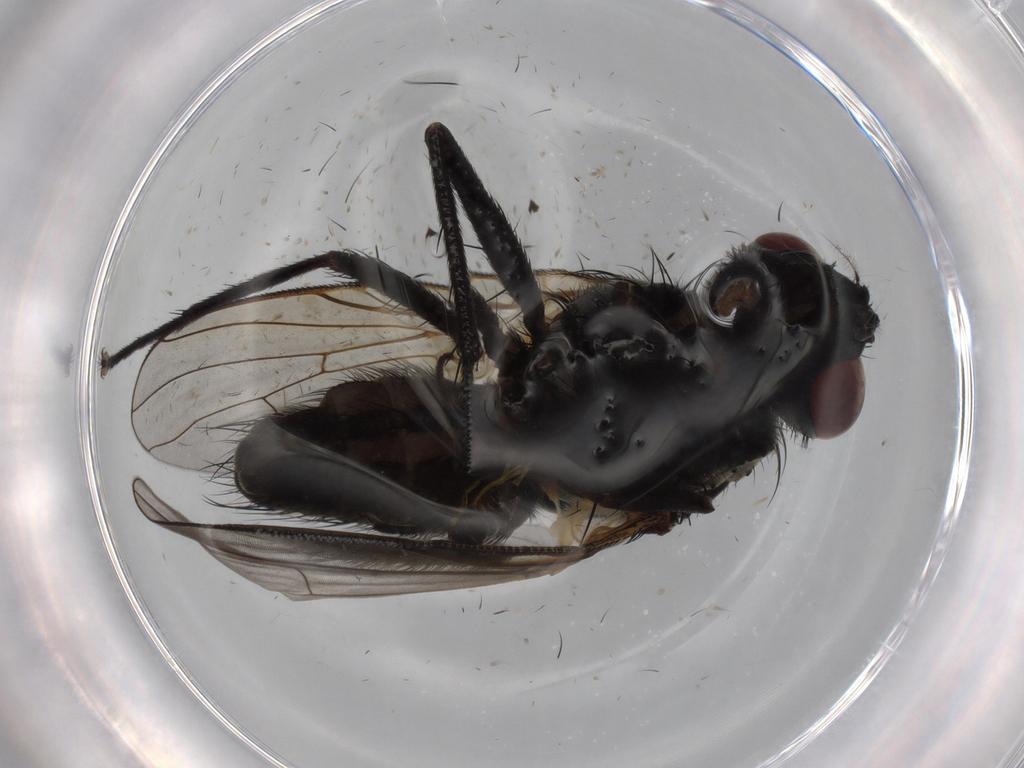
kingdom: Animalia
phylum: Arthropoda
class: Insecta
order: Diptera
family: Muscidae
